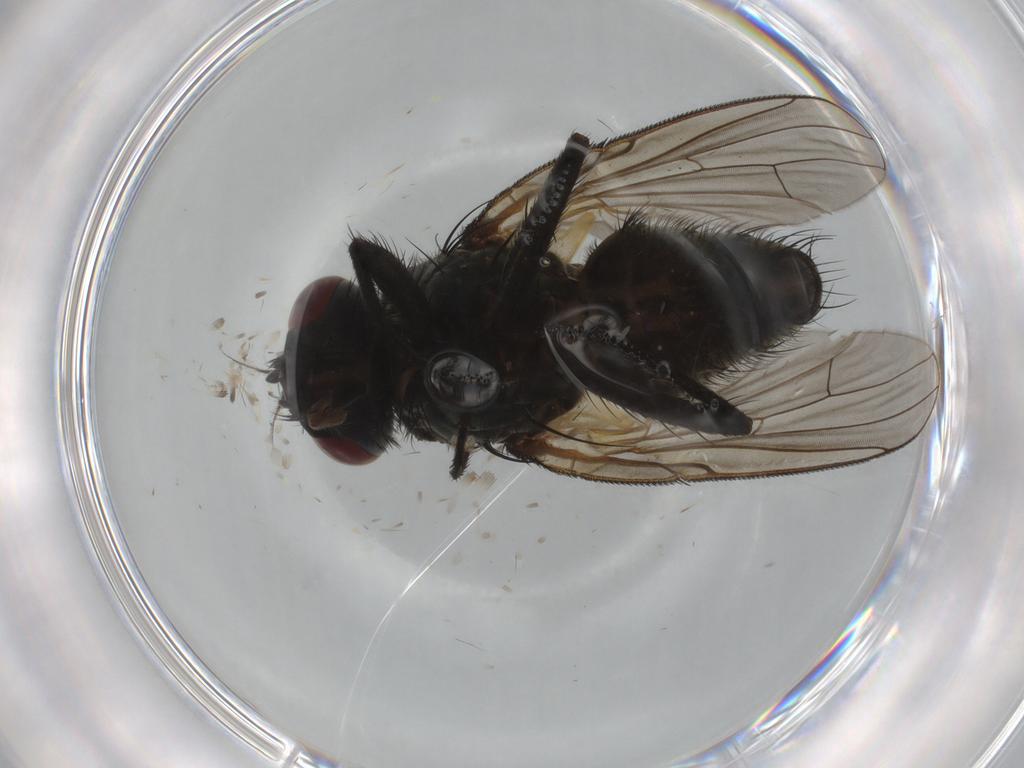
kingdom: Animalia
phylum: Arthropoda
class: Insecta
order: Diptera
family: Muscidae
